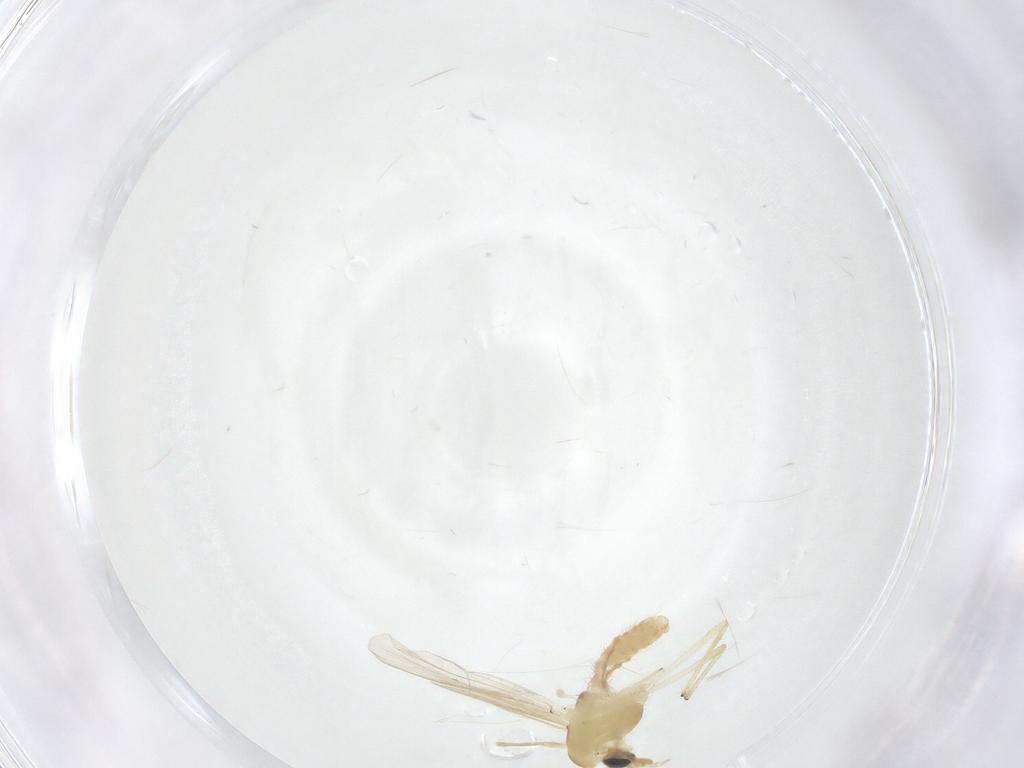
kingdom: Animalia
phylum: Arthropoda
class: Insecta
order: Diptera
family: Chironomidae
